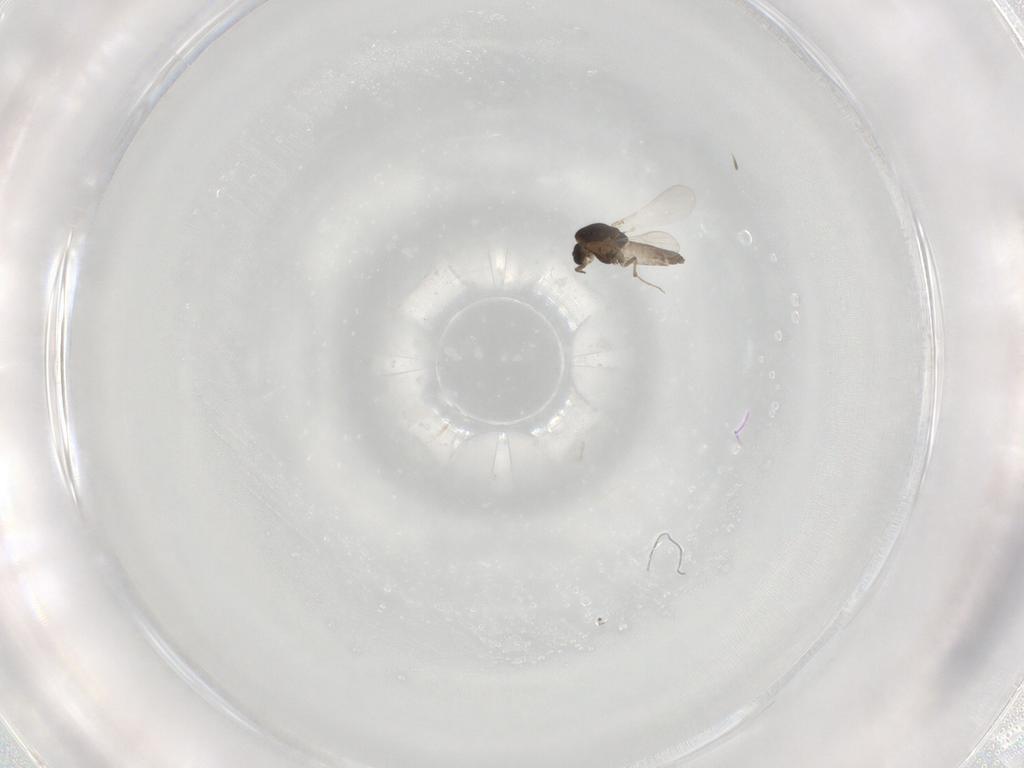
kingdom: Animalia
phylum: Arthropoda
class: Insecta
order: Diptera
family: Chironomidae
